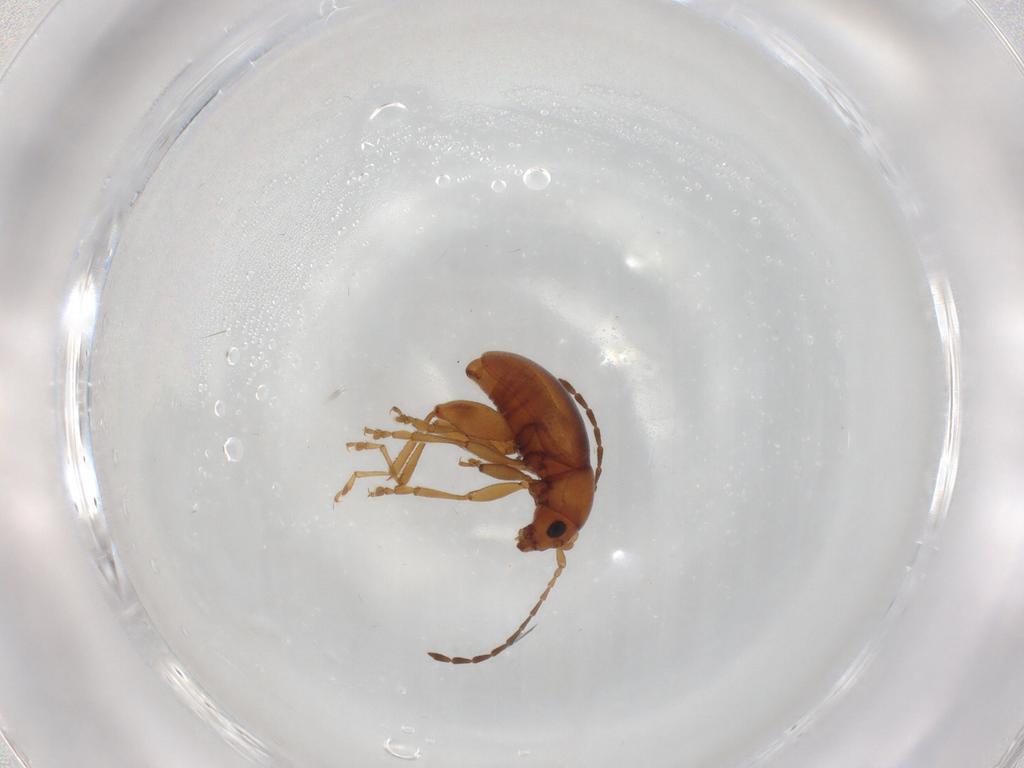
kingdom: Animalia
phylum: Arthropoda
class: Insecta
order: Coleoptera
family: Chrysomelidae
